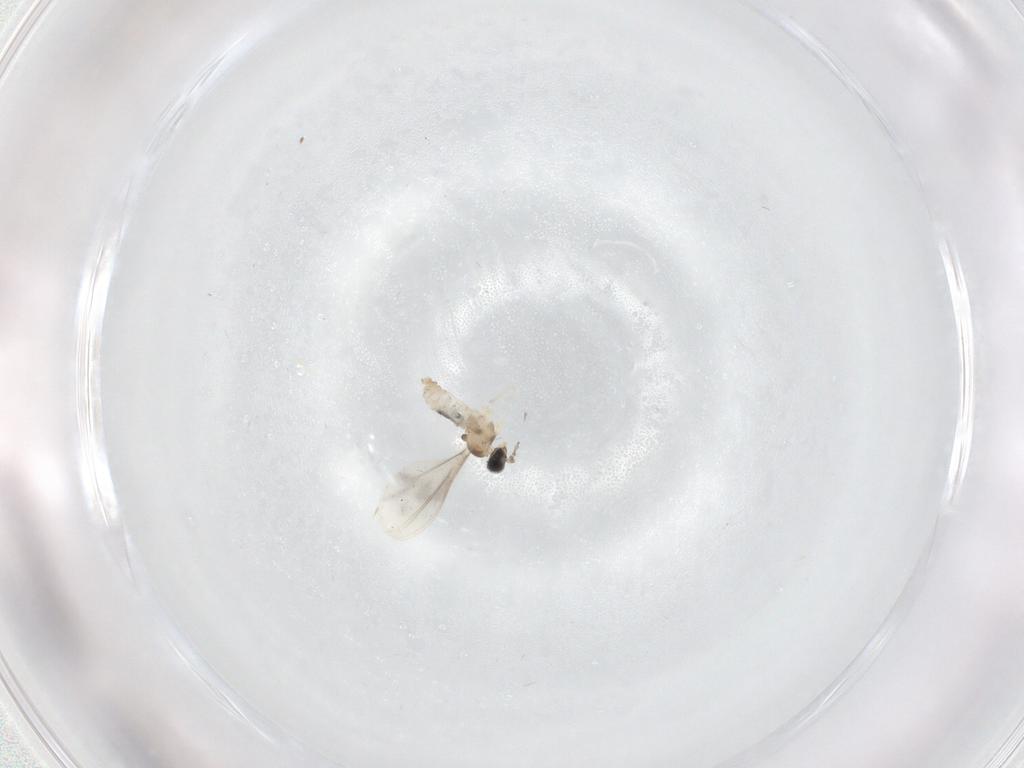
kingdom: Animalia
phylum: Arthropoda
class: Insecta
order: Diptera
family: Cecidomyiidae
